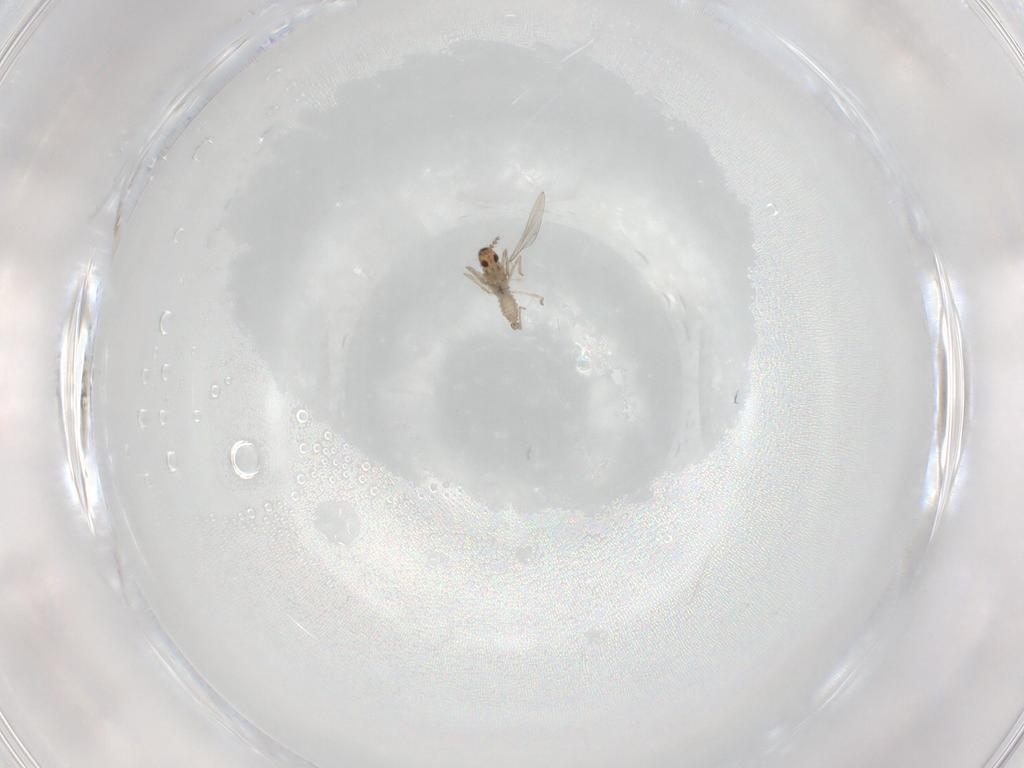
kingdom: Animalia
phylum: Arthropoda
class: Insecta
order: Diptera
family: Cecidomyiidae
